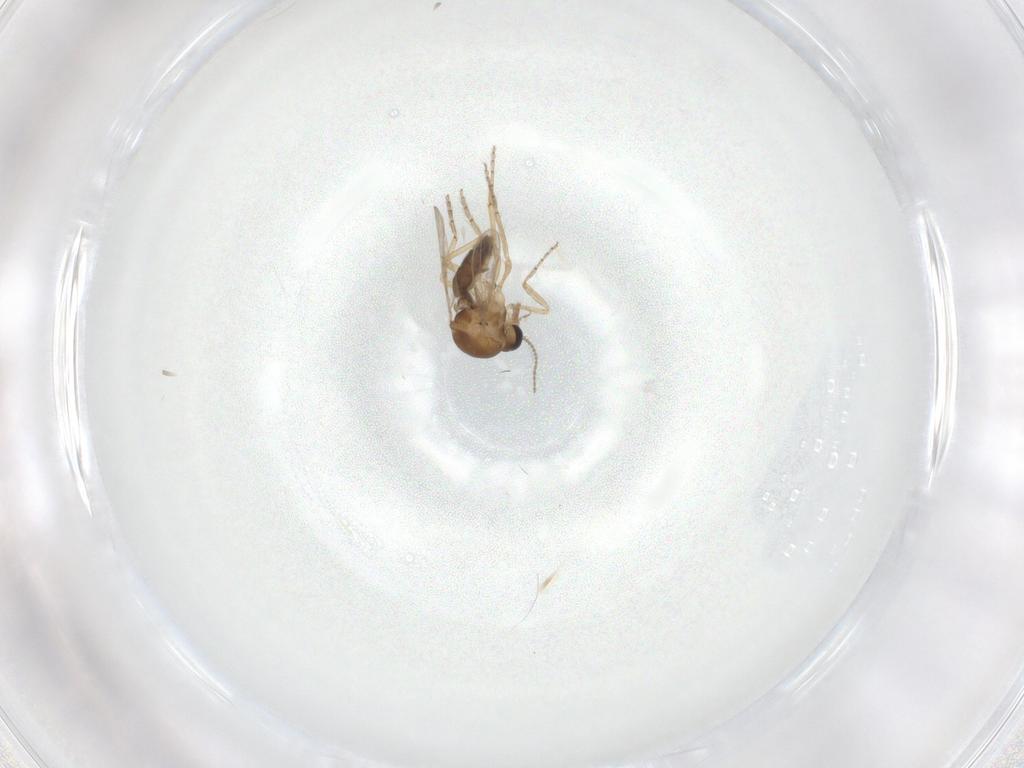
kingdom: Animalia
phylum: Arthropoda
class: Insecta
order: Diptera
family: Ceratopogonidae
